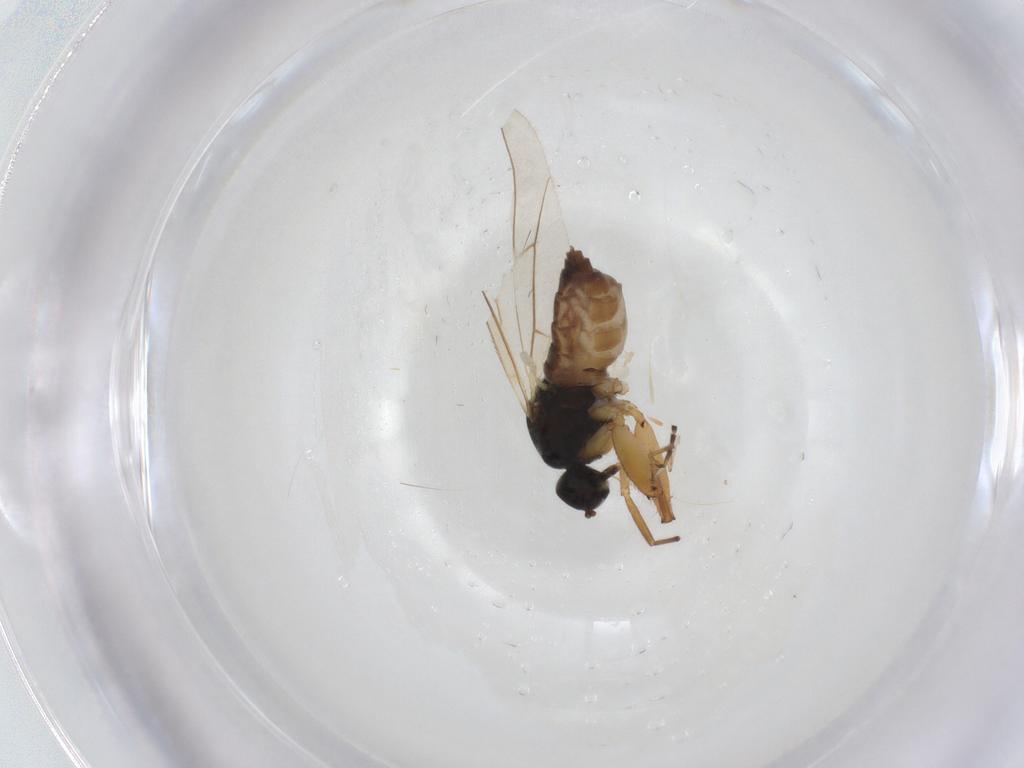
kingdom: Animalia
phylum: Arthropoda
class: Insecta
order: Diptera
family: Hybotidae
